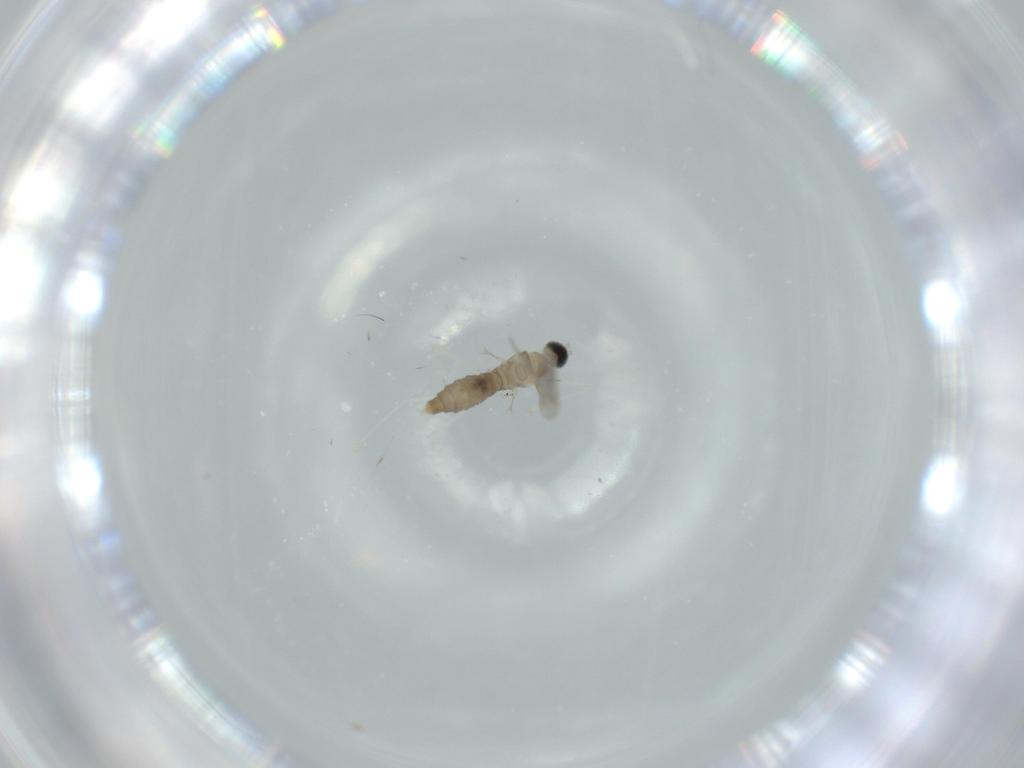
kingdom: Animalia
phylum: Arthropoda
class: Insecta
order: Diptera
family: Cecidomyiidae
